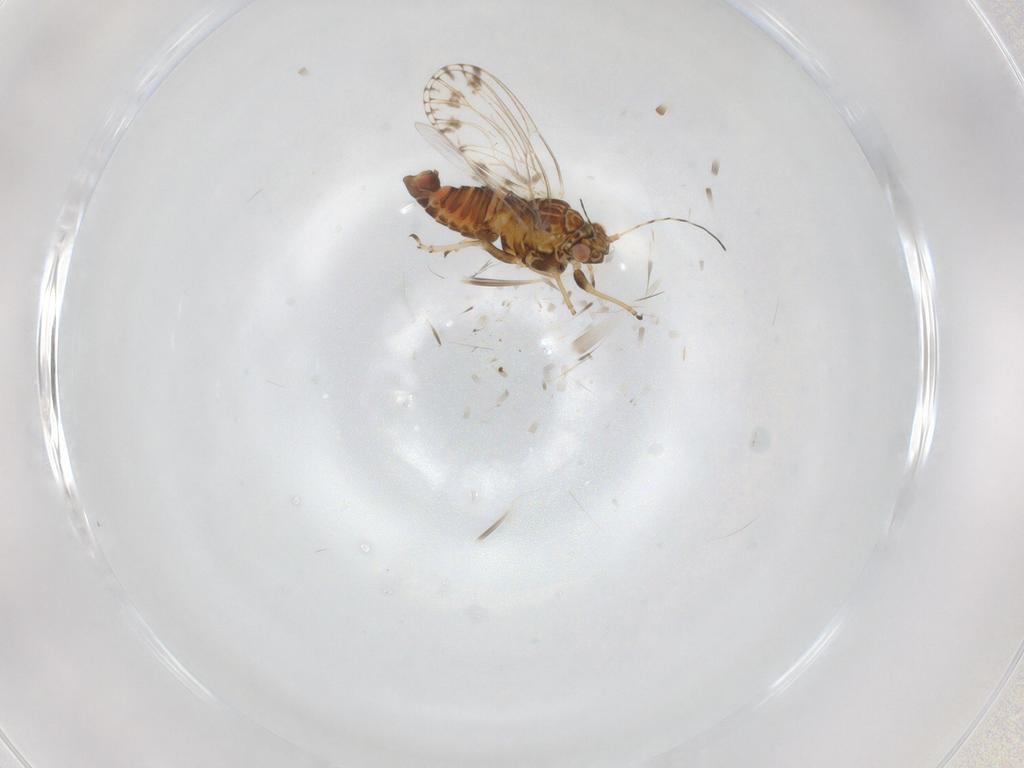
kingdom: Animalia
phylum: Arthropoda
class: Insecta
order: Hemiptera
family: Psyllidae
